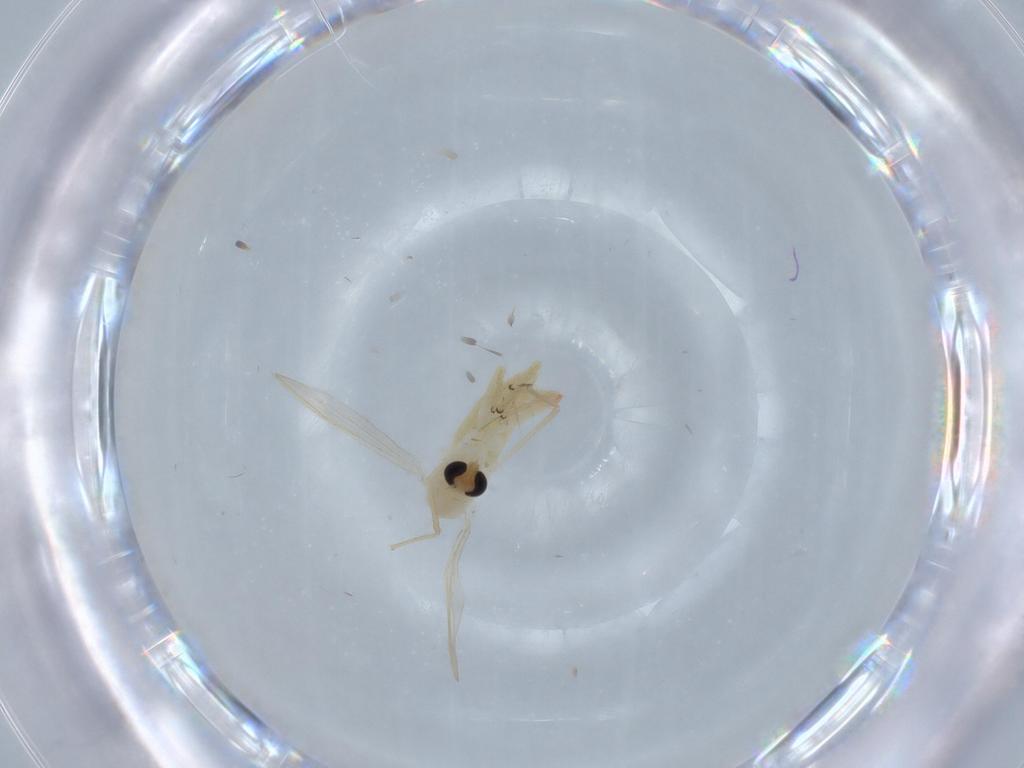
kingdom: Animalia
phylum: Arthropoda
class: Insecta
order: Diptera
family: Chironomidae
